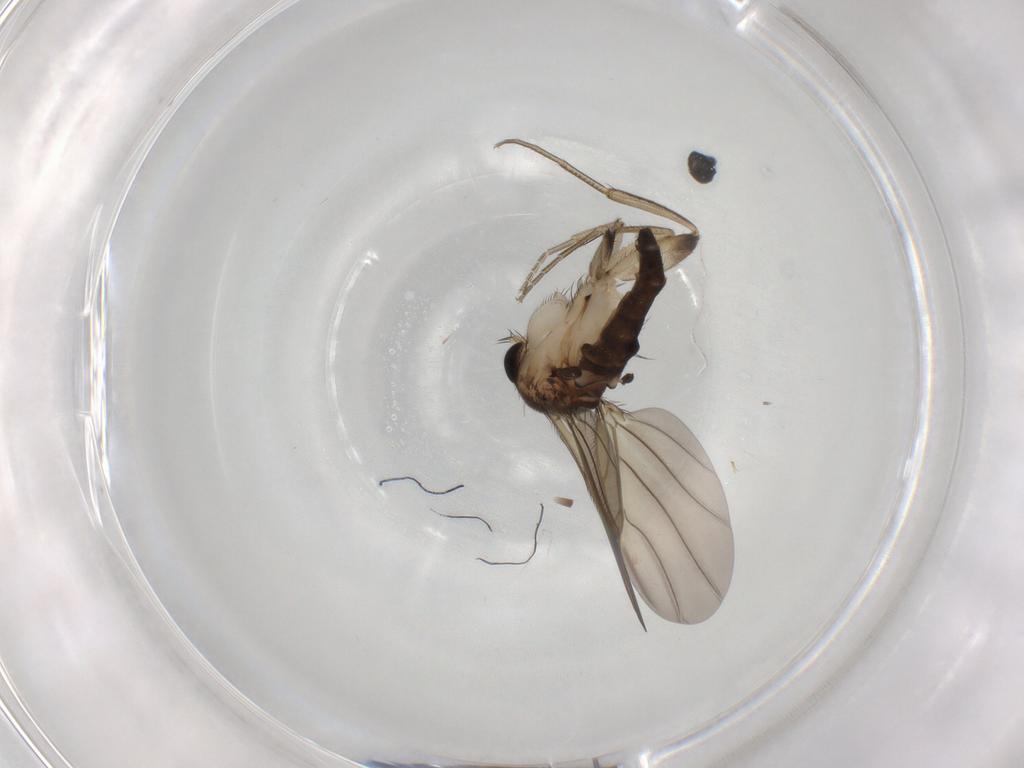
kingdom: Animalia
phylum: Arthropoda
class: Insecta
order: Diptera
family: Phoridae
